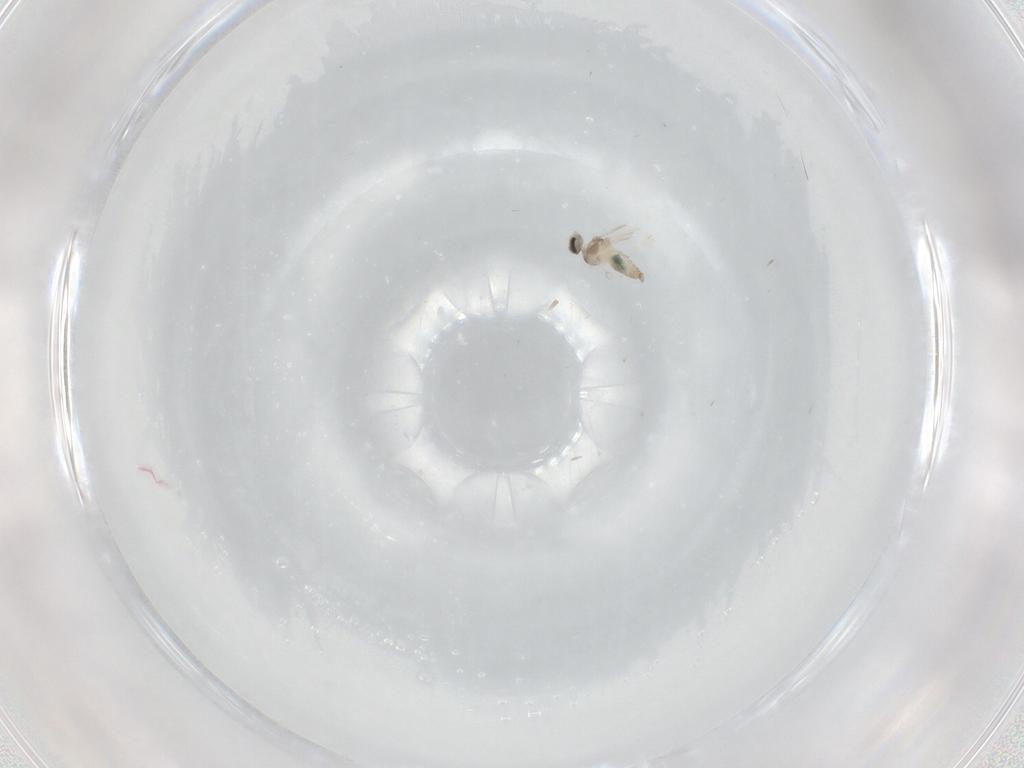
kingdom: Animalia
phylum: Arthropoda
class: Insecta
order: Diptera
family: Cecidomyiidae
